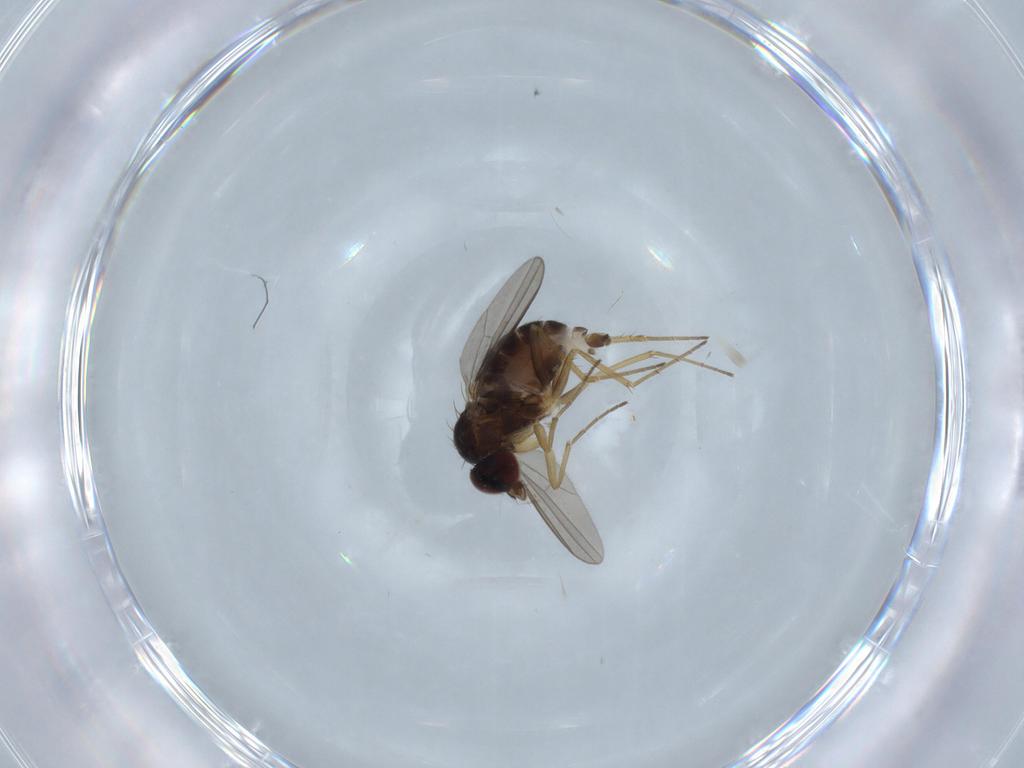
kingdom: Animalia
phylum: Arthropoda
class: Insecta
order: Diptera
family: Dolichopodidae
